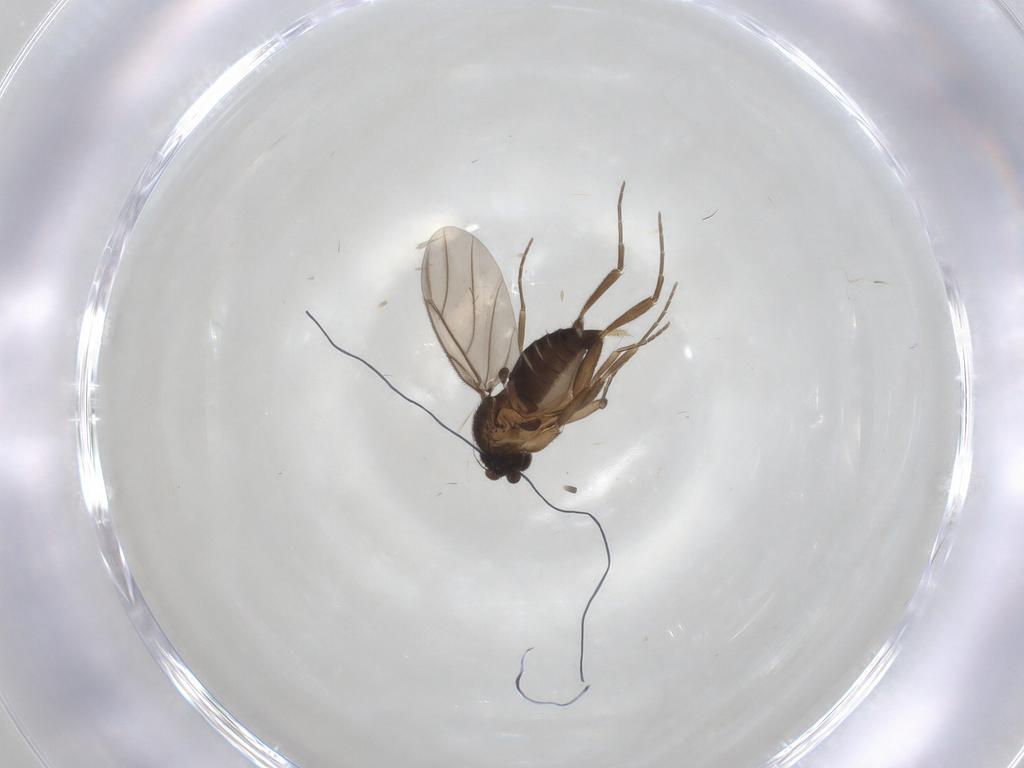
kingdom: Animalia
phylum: Arthropoda
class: Insecta
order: Diptera
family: Phoridae
